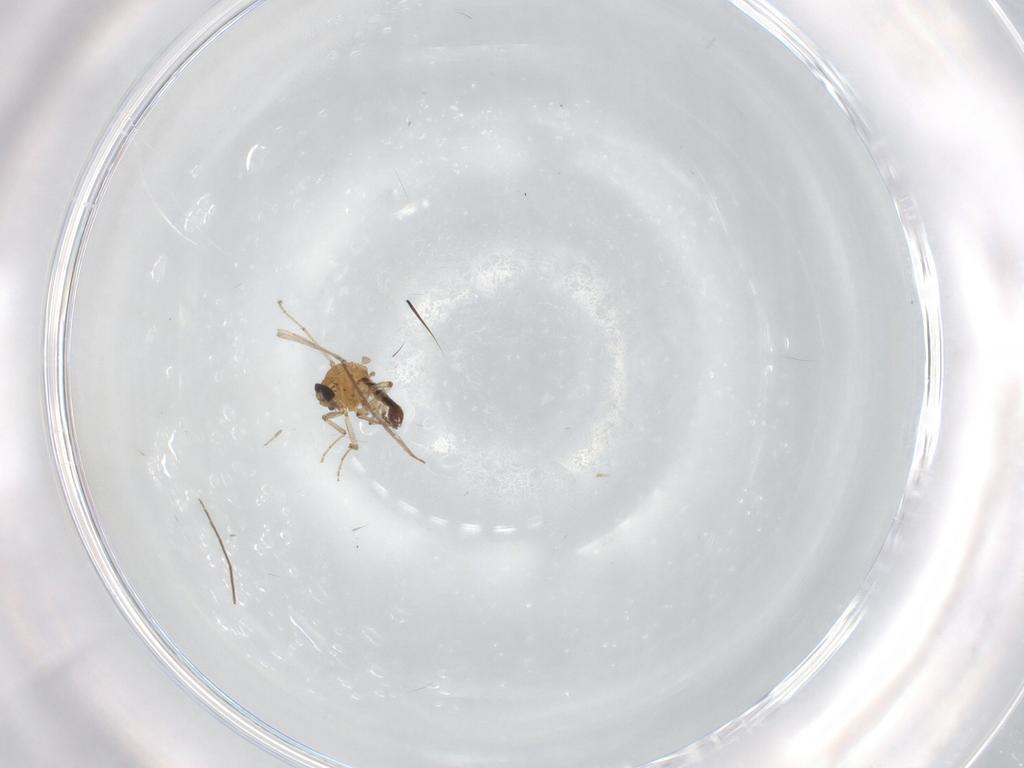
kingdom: Animalia
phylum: Arthropoda
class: Insecta
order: Diptera
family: Ceratopogonidae
